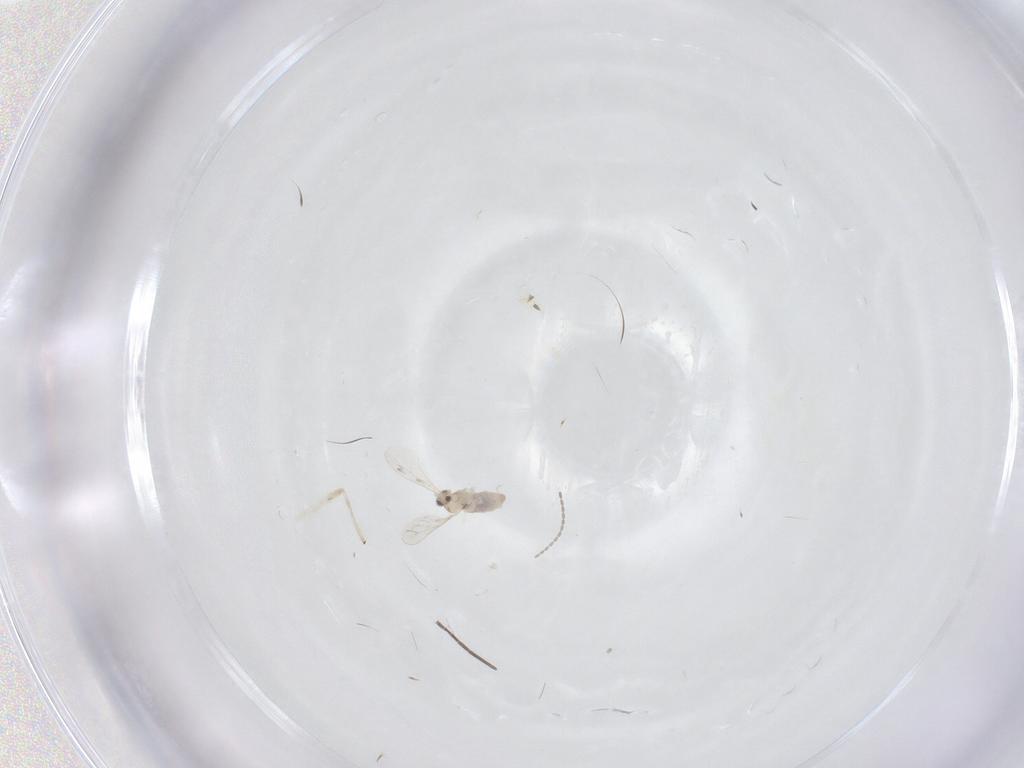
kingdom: Animalia
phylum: Arthropoda
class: Insecta
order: Diptera
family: Cecidomyiidae
